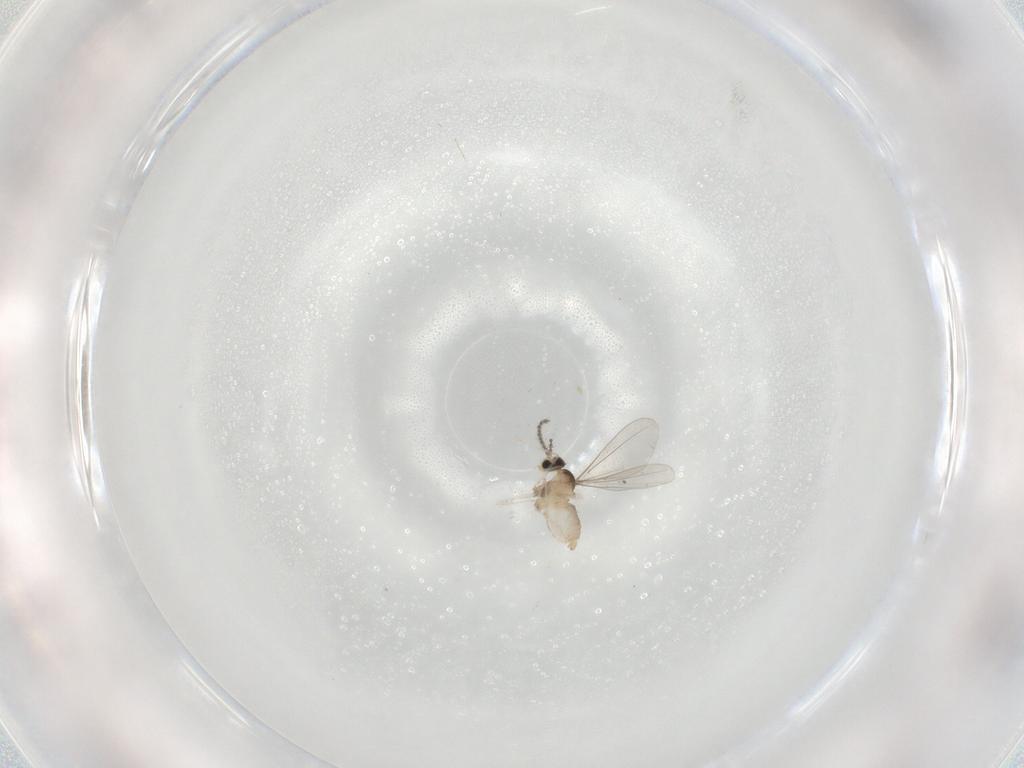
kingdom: Animalia
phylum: Arthropoda
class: Insecta
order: Diptera
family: Cecidomyiidae
